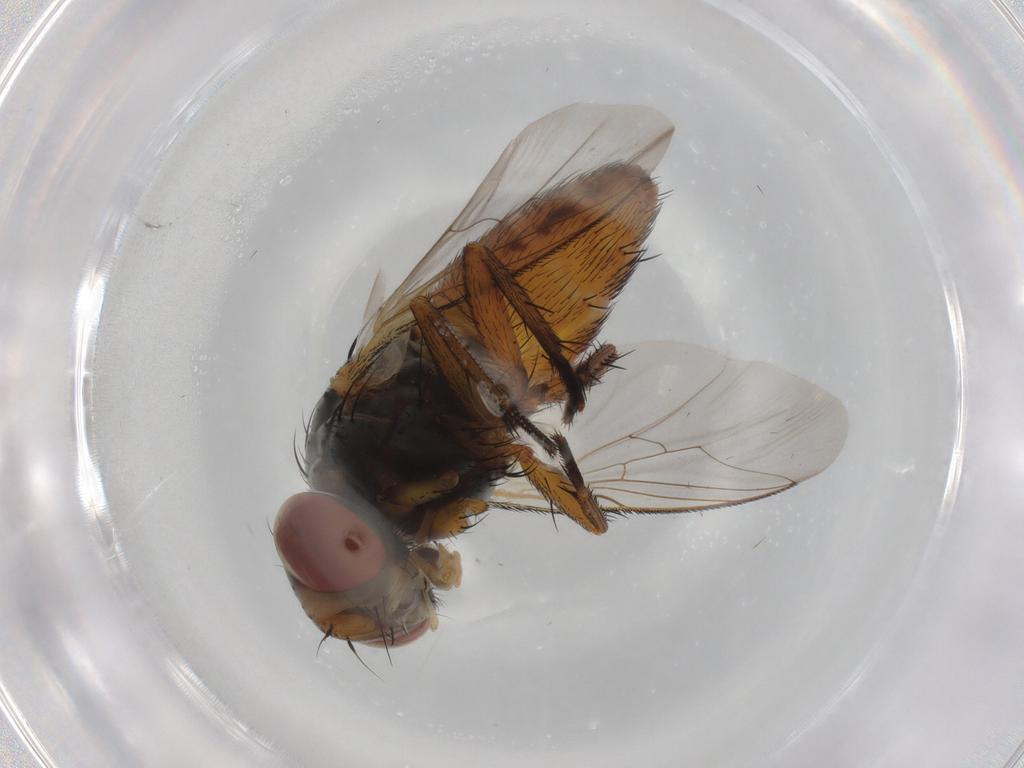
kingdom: Animalia
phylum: Arthropoda
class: Insecta
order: Diptera
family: Sarcophagidae
